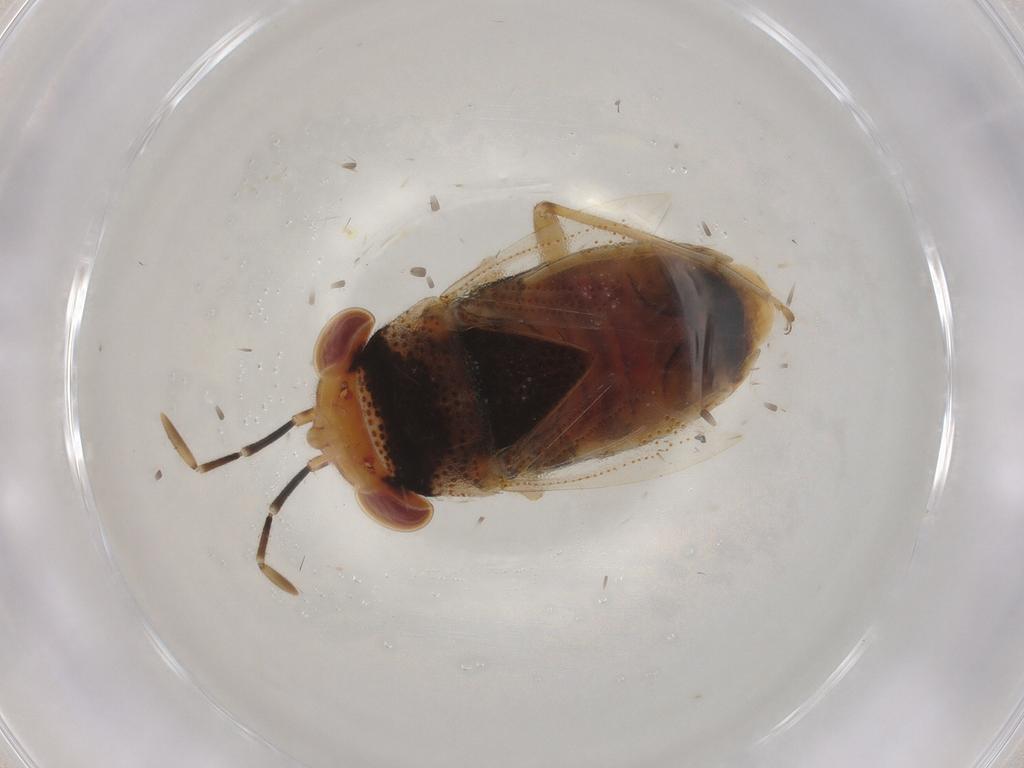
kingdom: Animalia
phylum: Arthropoda
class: Insecta
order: Hemiptera
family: Geocoridae
